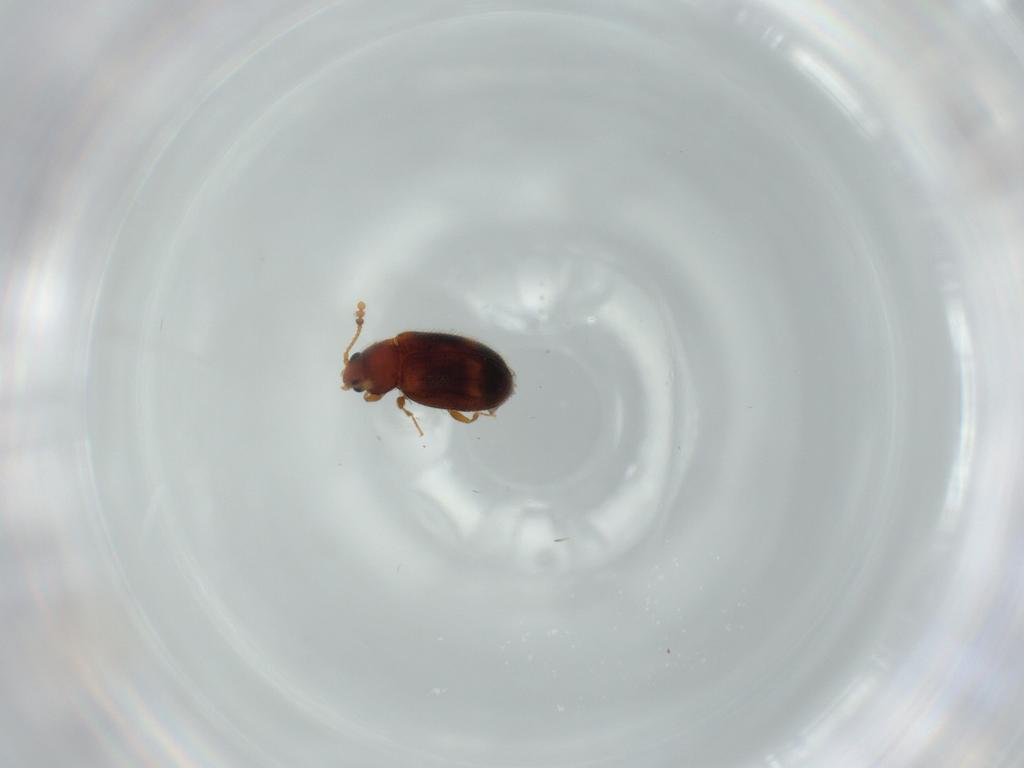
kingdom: Animalia
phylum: Arthropoda
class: Insecta
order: Coleoptera
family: Erotylidae
